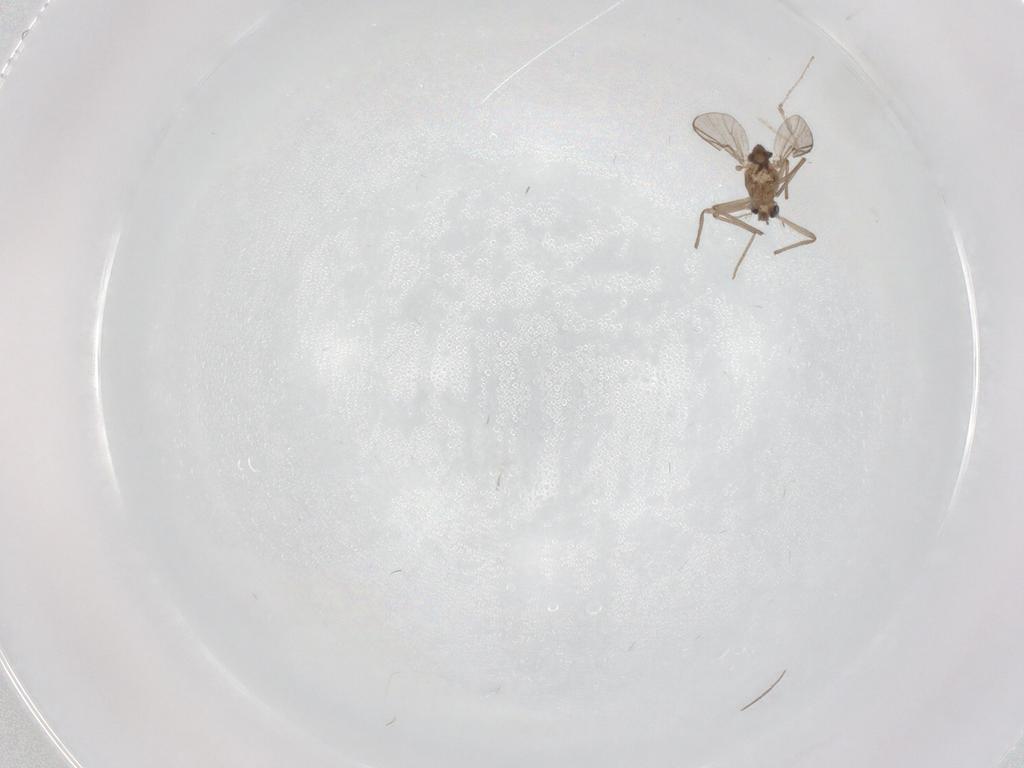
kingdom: Animalia
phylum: Arthropoda
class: Insecta
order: Diptera
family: Cecidomyiidae
